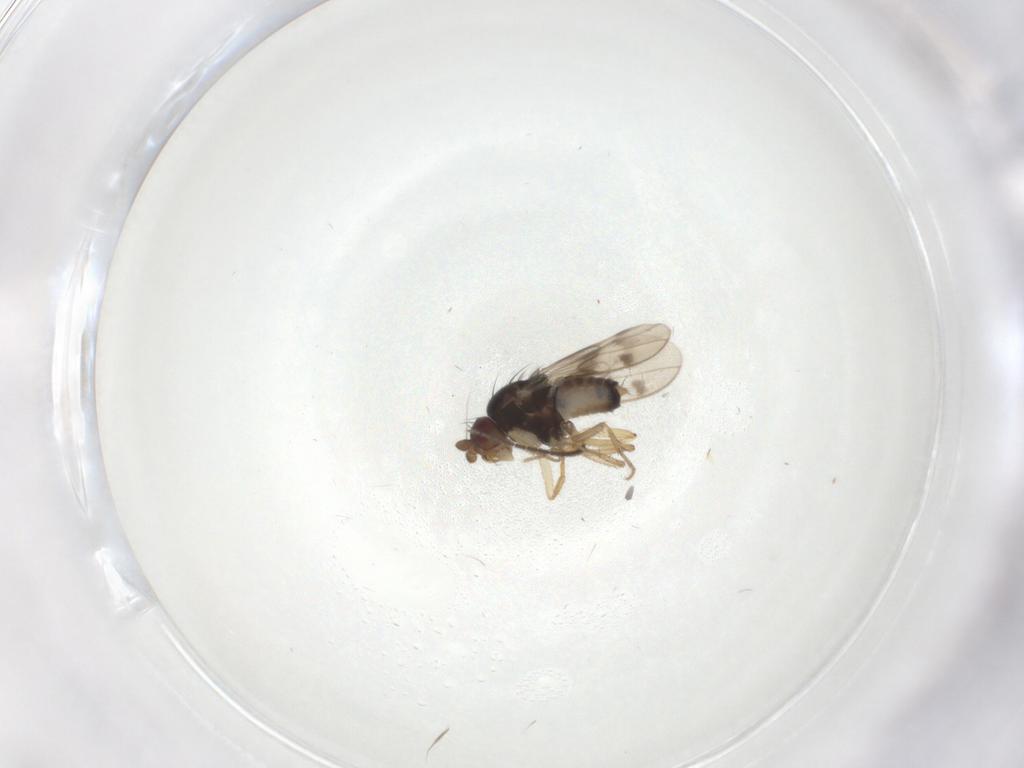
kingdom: Animalia
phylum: Arthropoda
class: Insecta
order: Diptera
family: Sphaeroceridae
